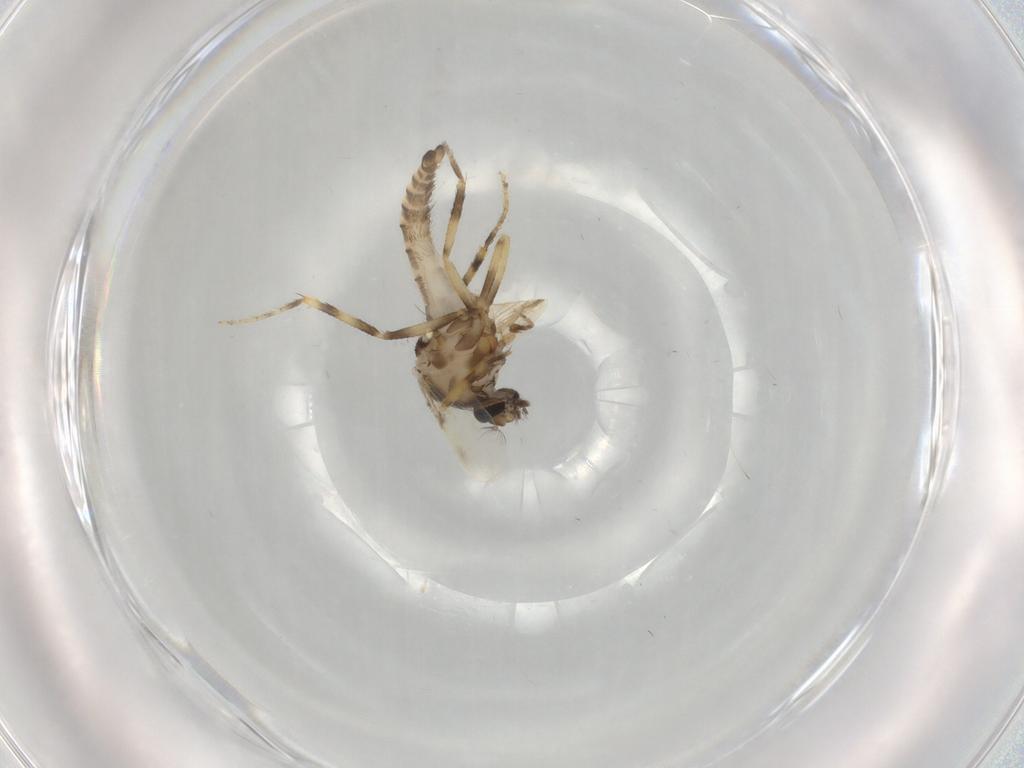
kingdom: Animalia
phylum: Arthropoda
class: Insecta
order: Diptera
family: Ceratopogonidae
